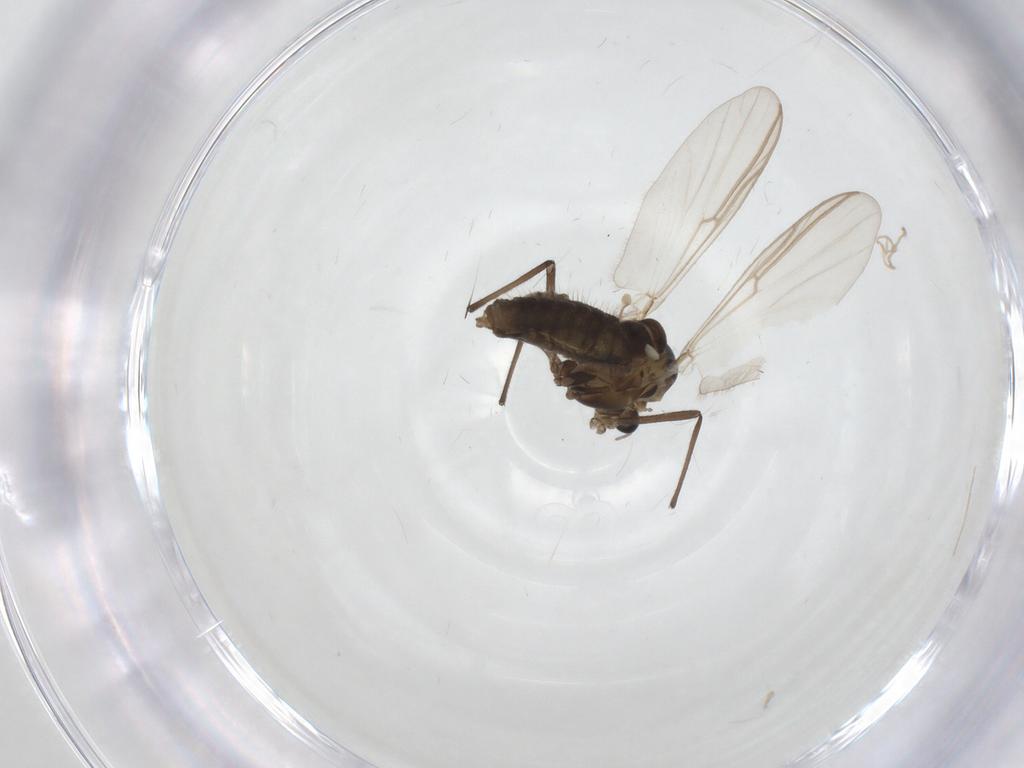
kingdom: Animalia
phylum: Arthropoda
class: Insecta
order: Diptera
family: Chironomidae
